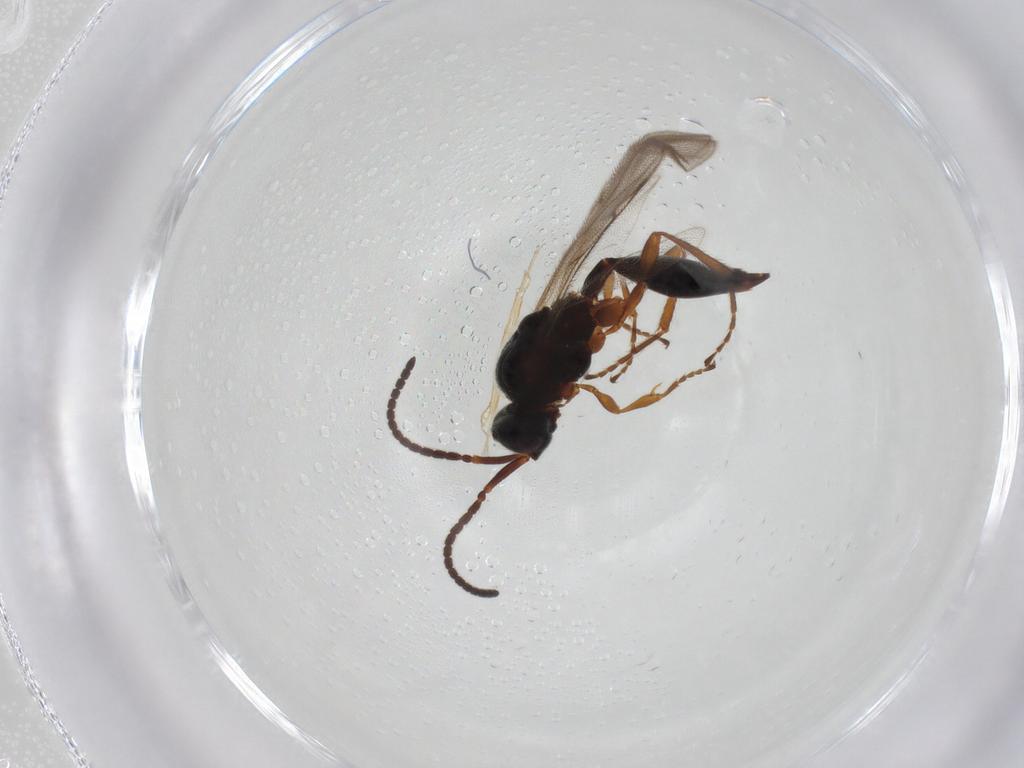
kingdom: Animalia
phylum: Arthropoda
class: Insecta
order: Hymenoptera
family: Diapriidae
